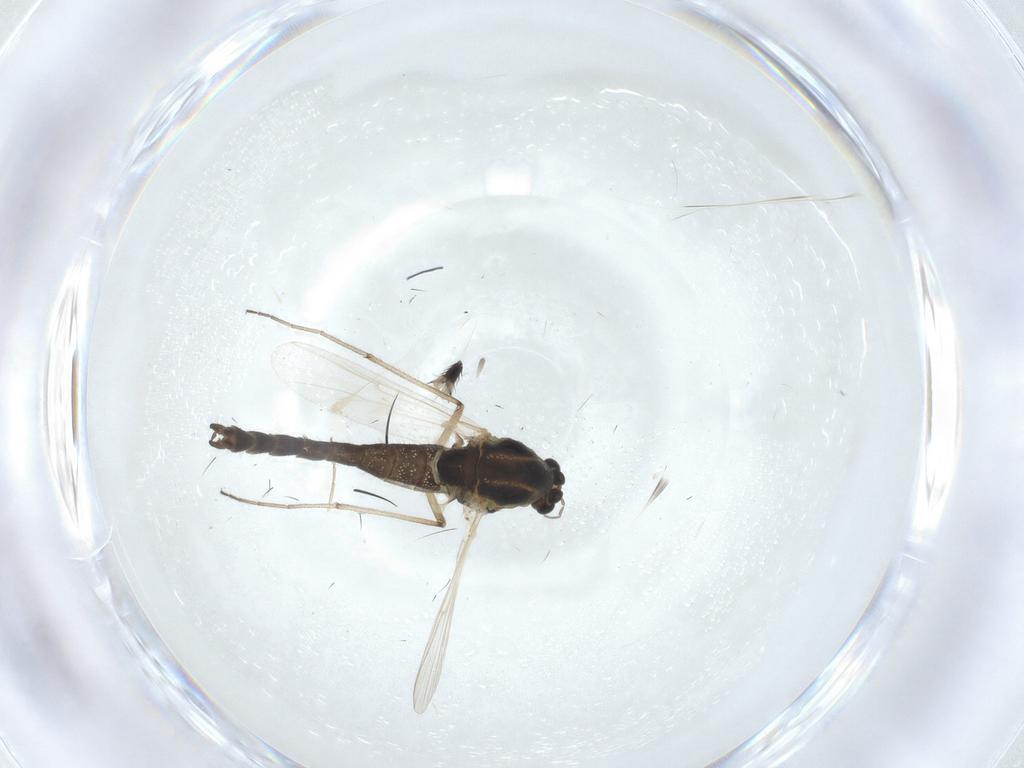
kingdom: Animalia
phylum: Arthropoda
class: Insecta
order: Diptera
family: Chironomidae
